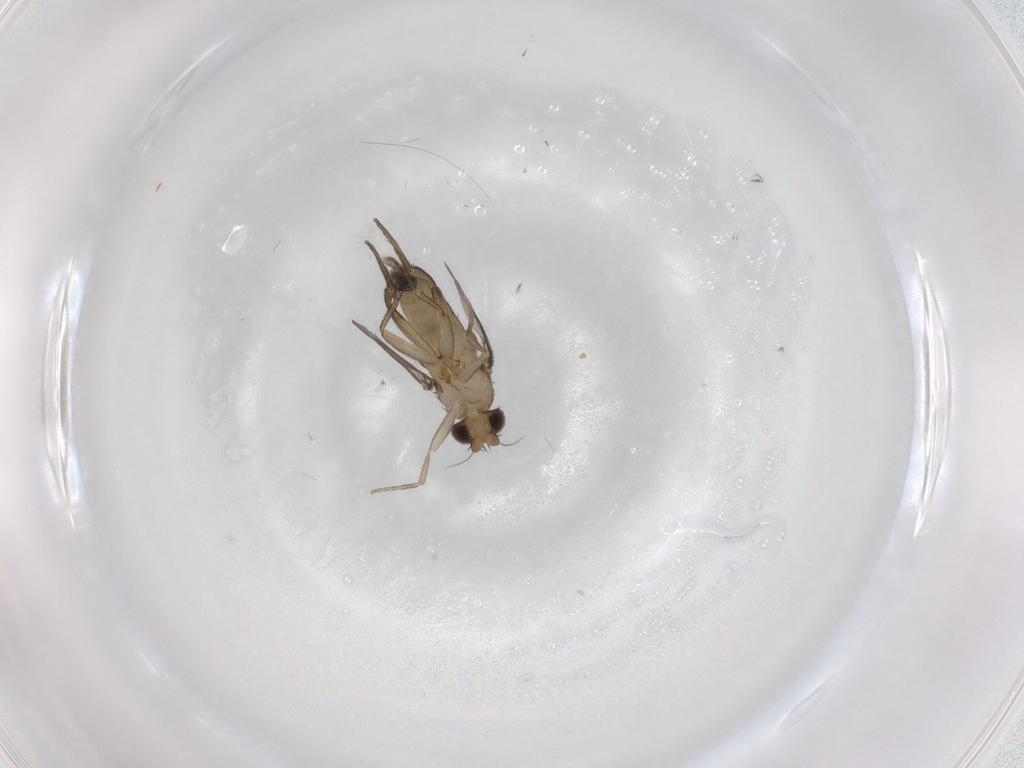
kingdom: Animalia
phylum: Arthropoda
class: Insecta
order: Diptera
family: Phoridae
